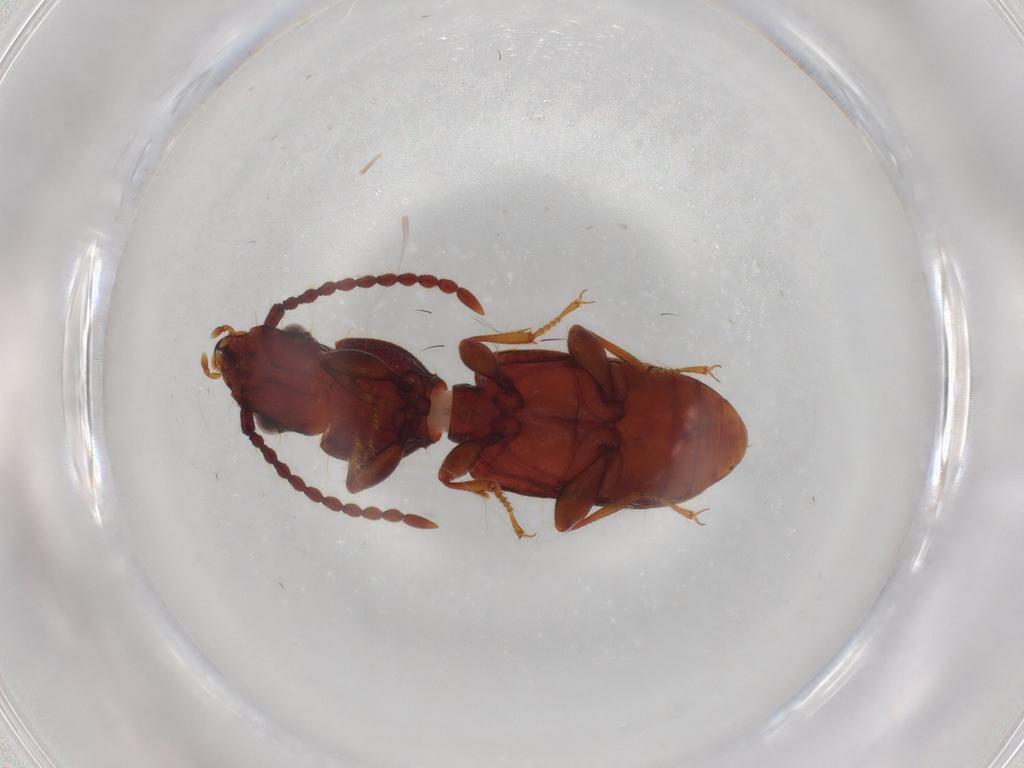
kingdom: Animalia
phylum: Arthropoda
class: Insecta
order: Coleoptera
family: Carabidae
